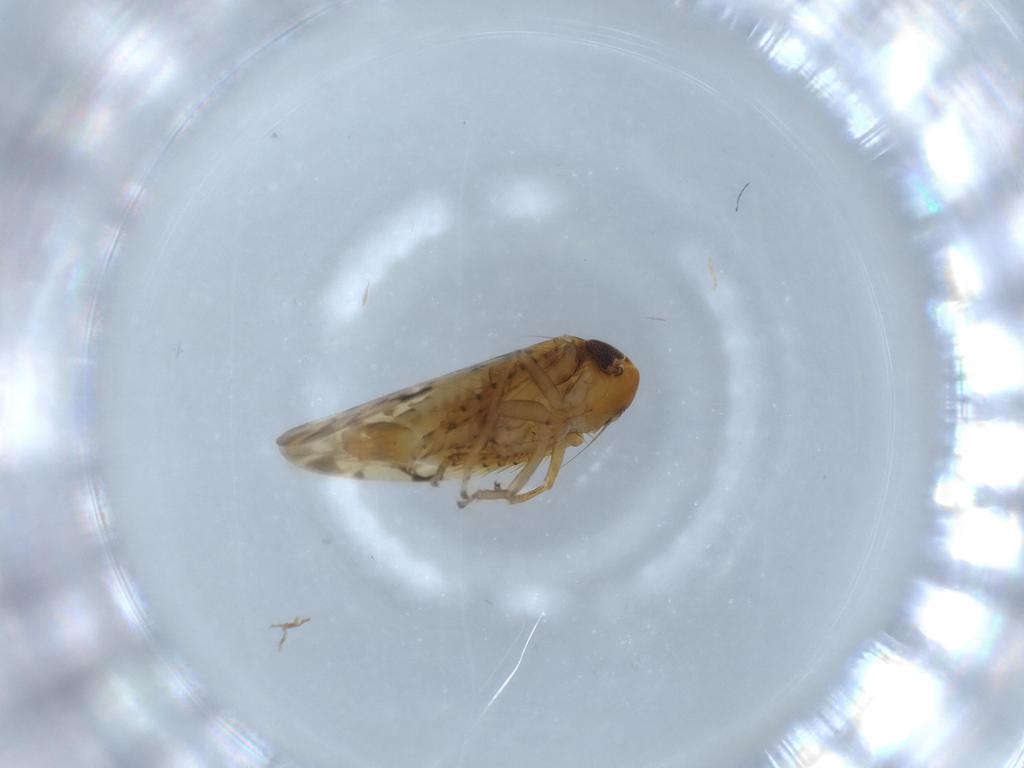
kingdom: Animalia
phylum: Arthropoda
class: Insecta
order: Hemiptera
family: Cicadellidae
